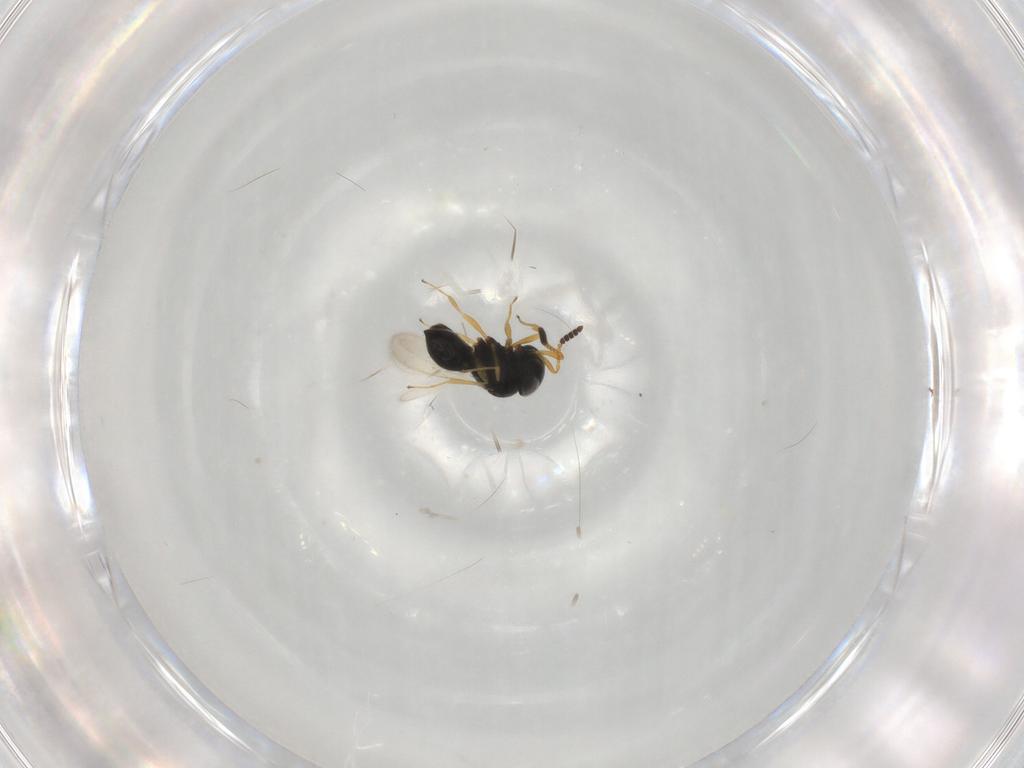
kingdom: Animalia
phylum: Arthropoda
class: Insecta
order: Hymenoptera
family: Scelionidae
